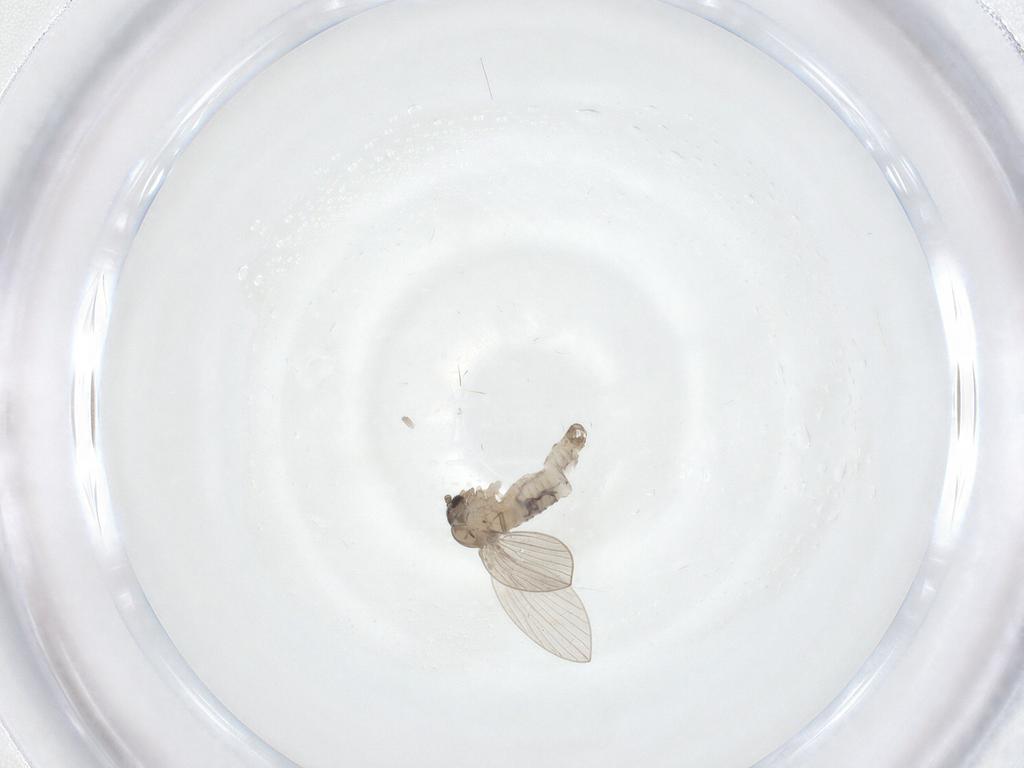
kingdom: Animalia
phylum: Arthropoda
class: Insecta
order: Diptera
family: Psychodidae
